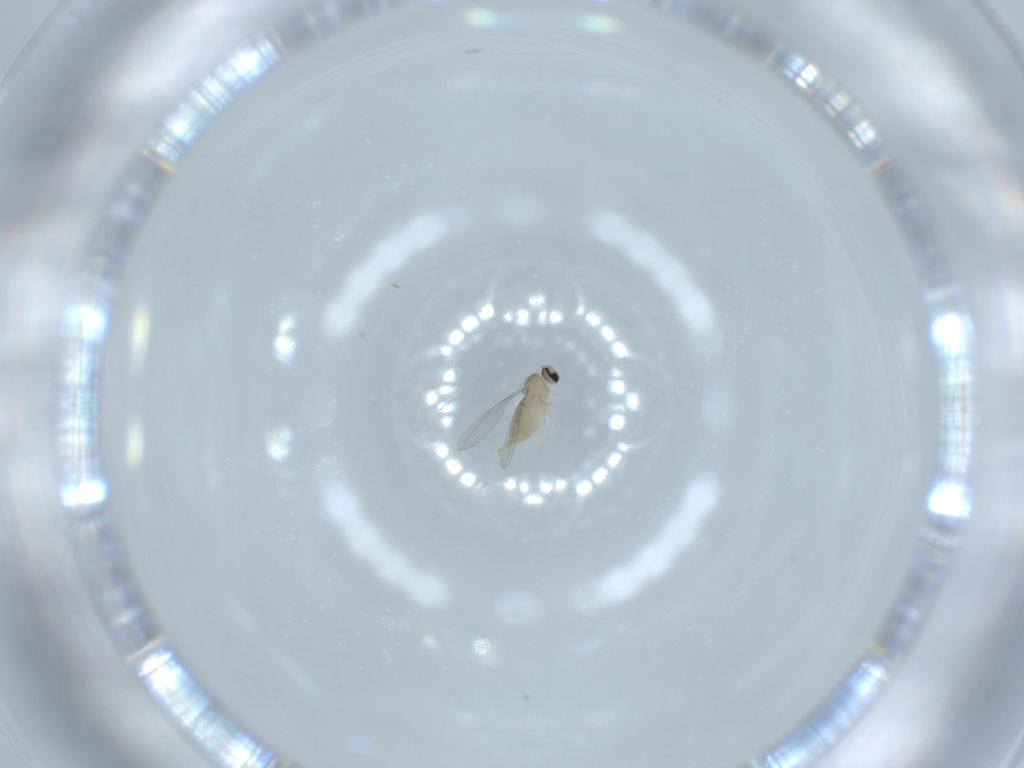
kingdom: Animalia
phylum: Arthropoda
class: Insecta
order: Diptera
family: Cecidomyiidae
